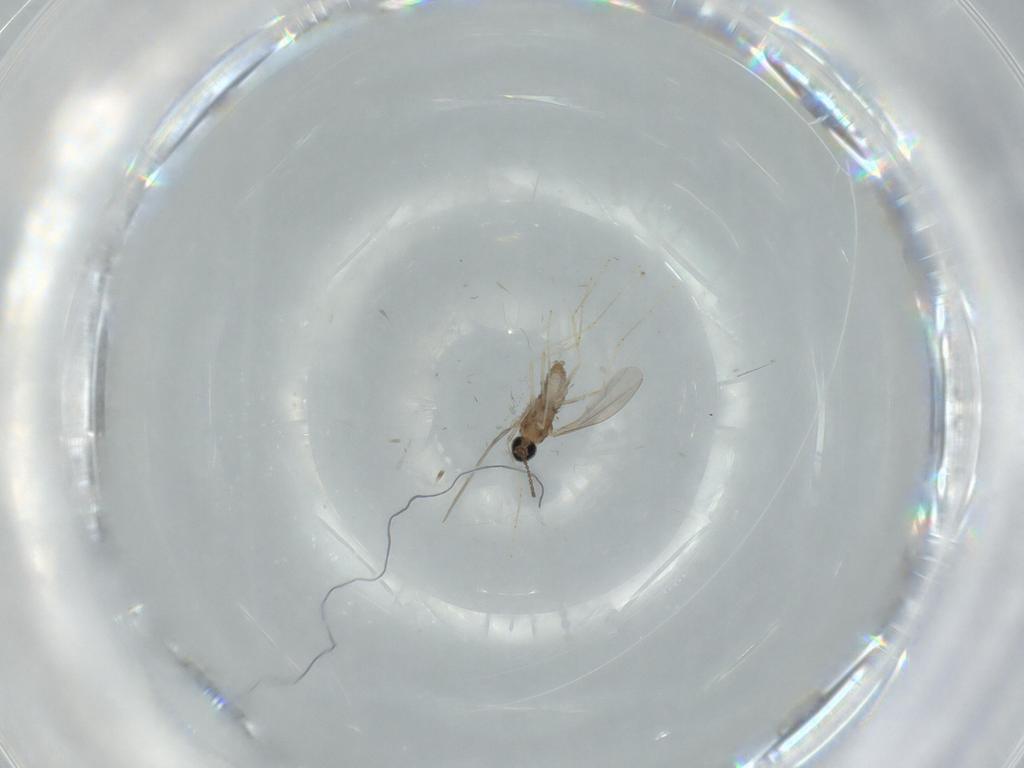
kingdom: Animalia
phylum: Arthropoda
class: Insecta
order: Diptera
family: Cecidomyiidae
